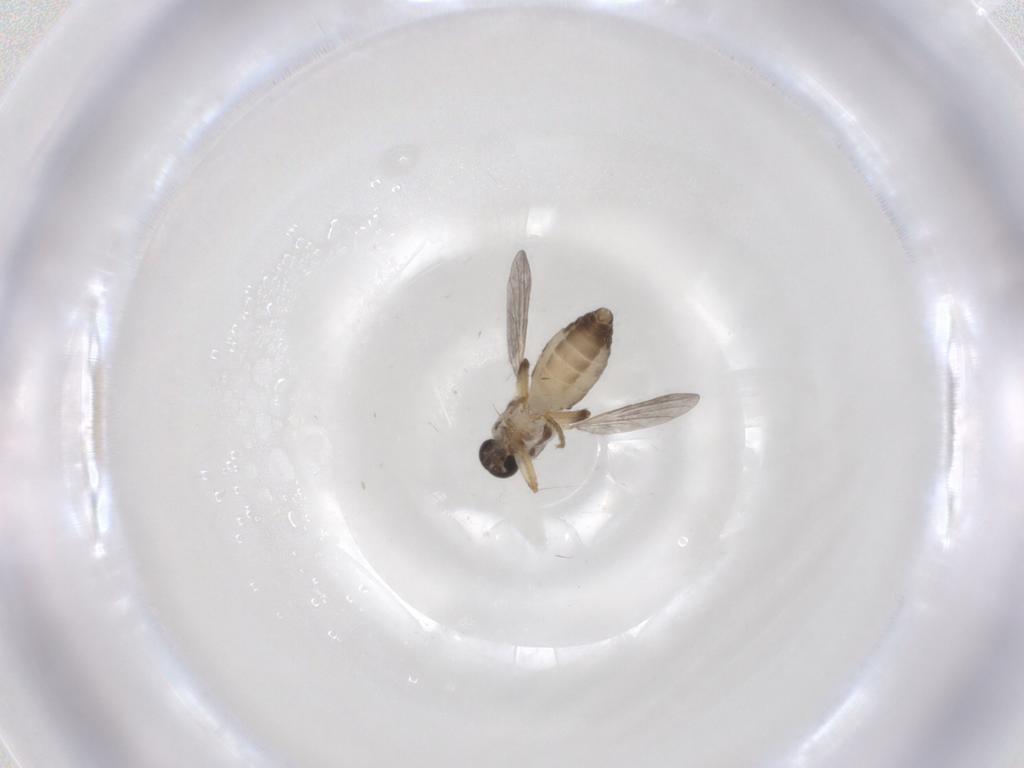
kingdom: Animalia
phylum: Arthropoda
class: Insecta
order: Diptera
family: Ceratopogonidae
